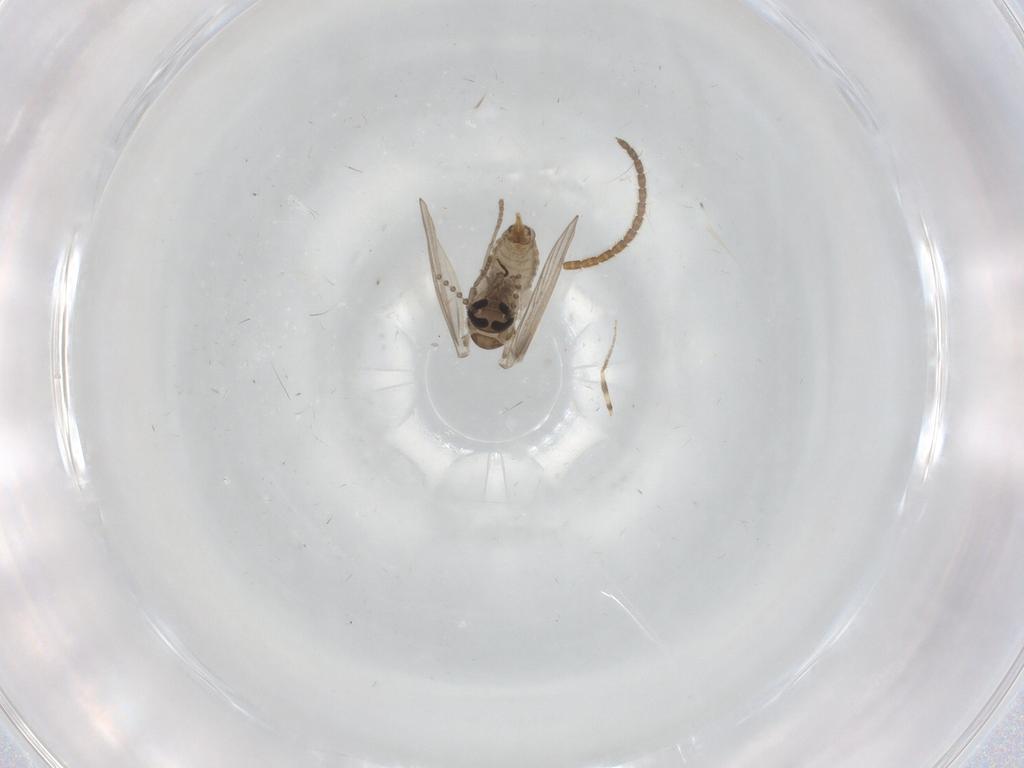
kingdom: Animalia
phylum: Arthropoda
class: Insecta
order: Diptera
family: Ceratopogonidae
